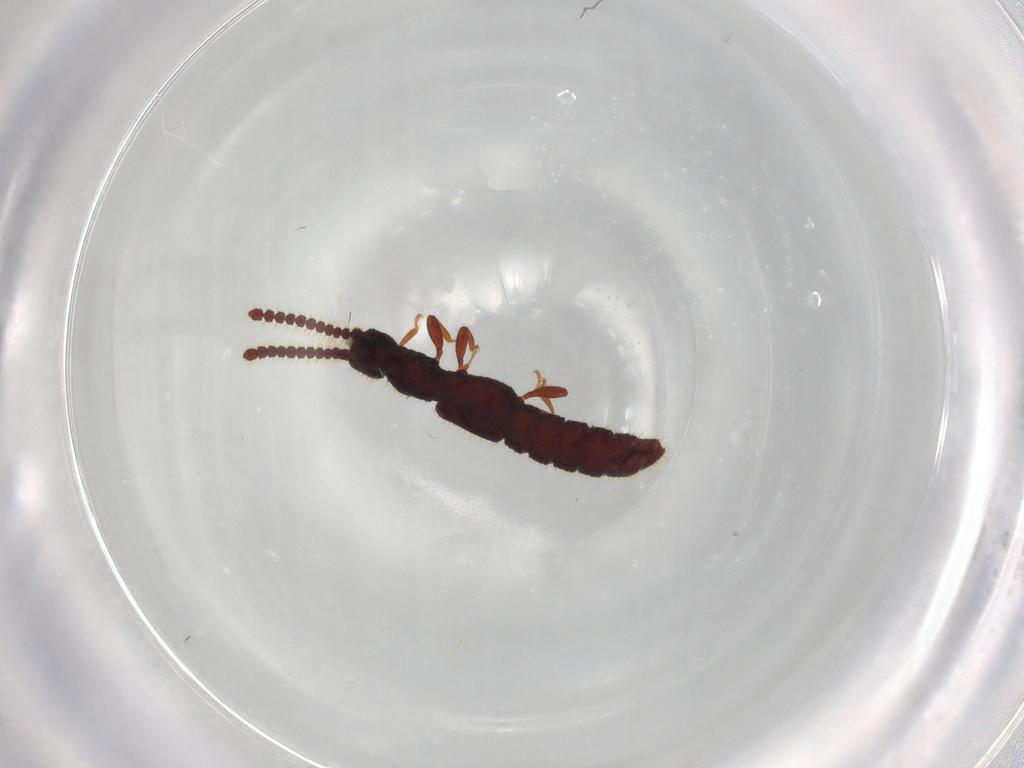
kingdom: Animalia
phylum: Arthropoda
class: Insecta
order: Coleoptera
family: Staphylinidae
